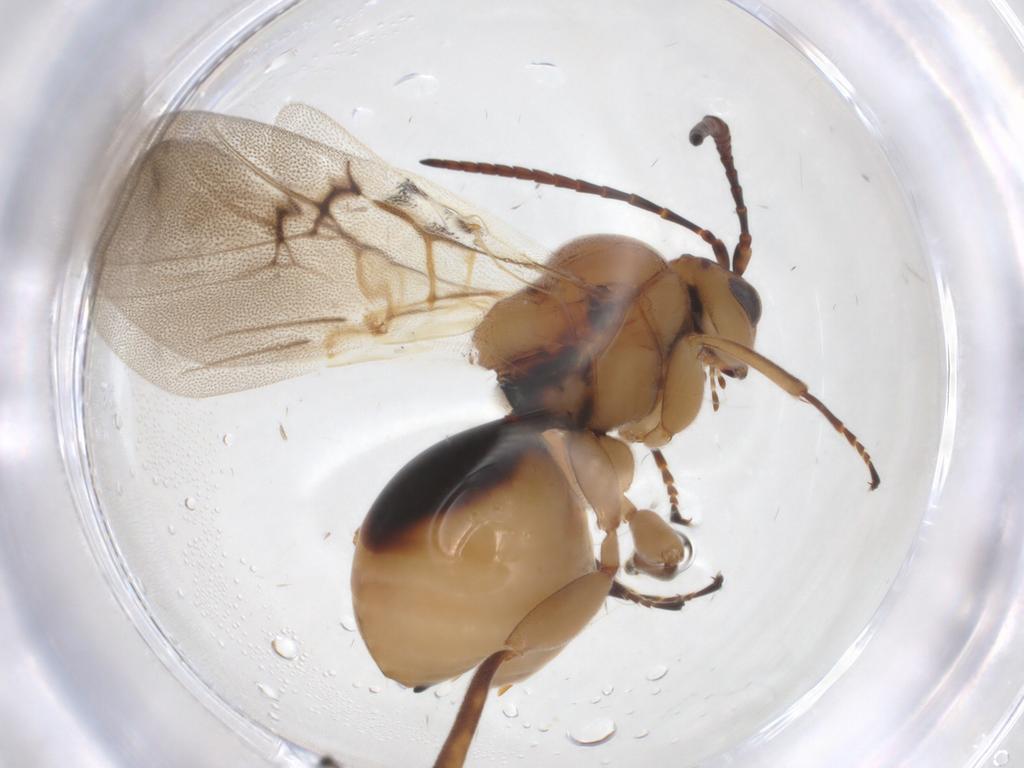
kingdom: Animalia
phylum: Arthropoda
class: Insecta
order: Hymenoptera
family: Cynipidae
